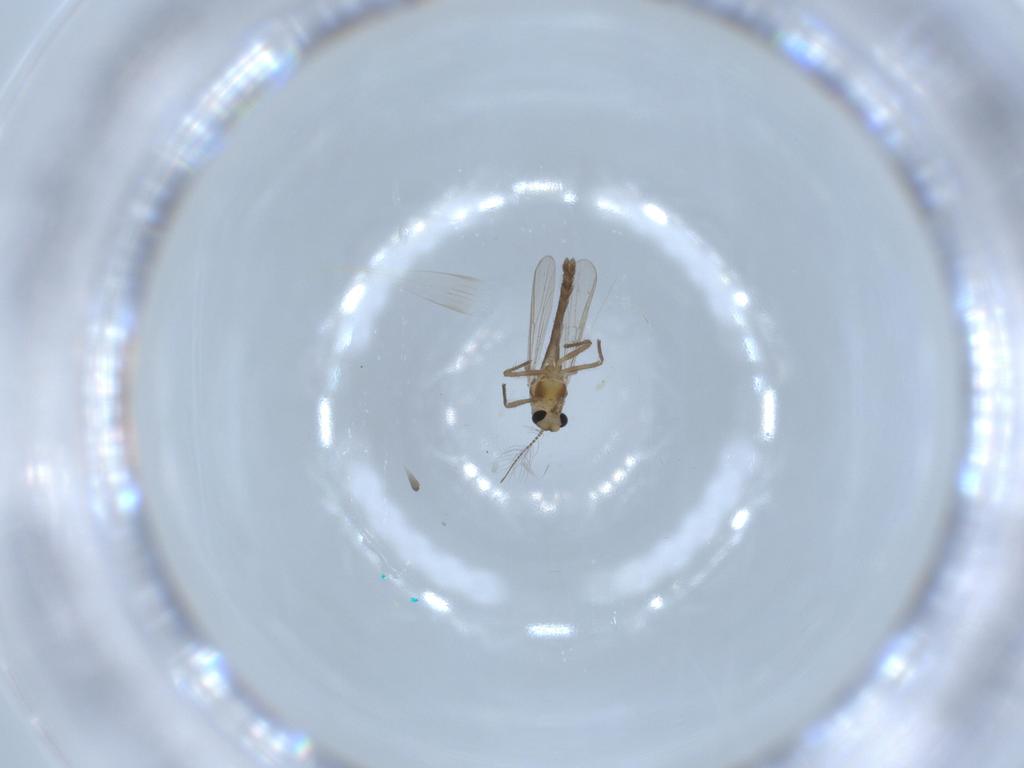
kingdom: Animalia
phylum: Arthropoda
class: Insecta
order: Diptera
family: Chironomidae
